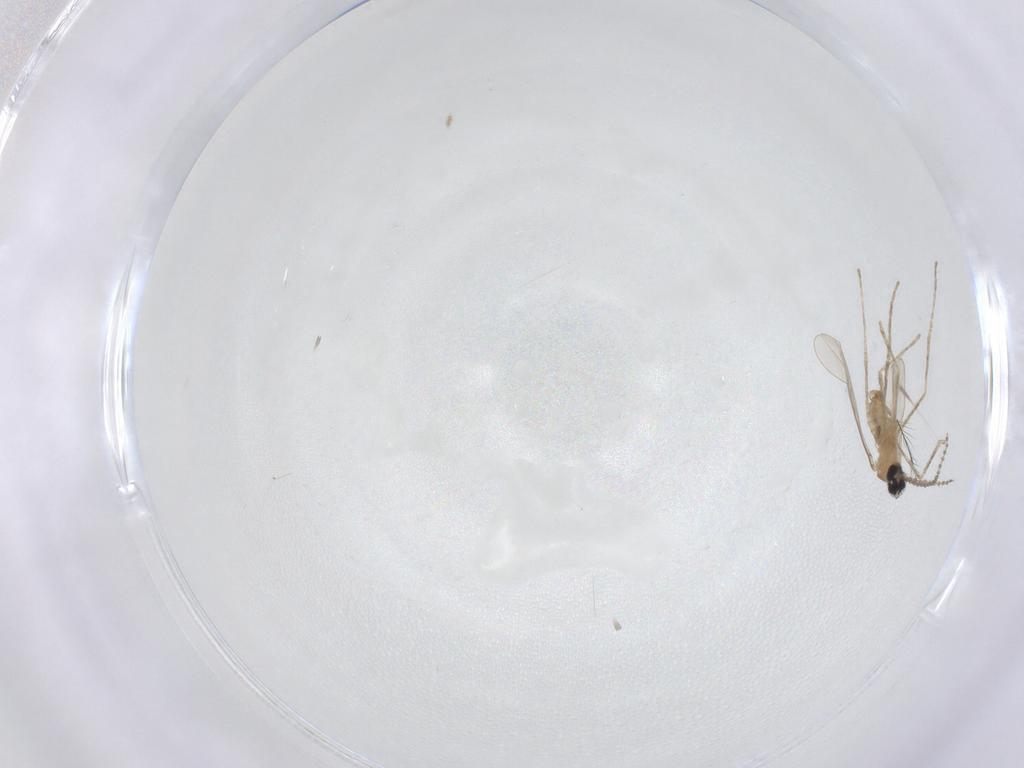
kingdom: Animalia
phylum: Arthropoda
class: Insecta
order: Diptera
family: Cecidomyiidae
